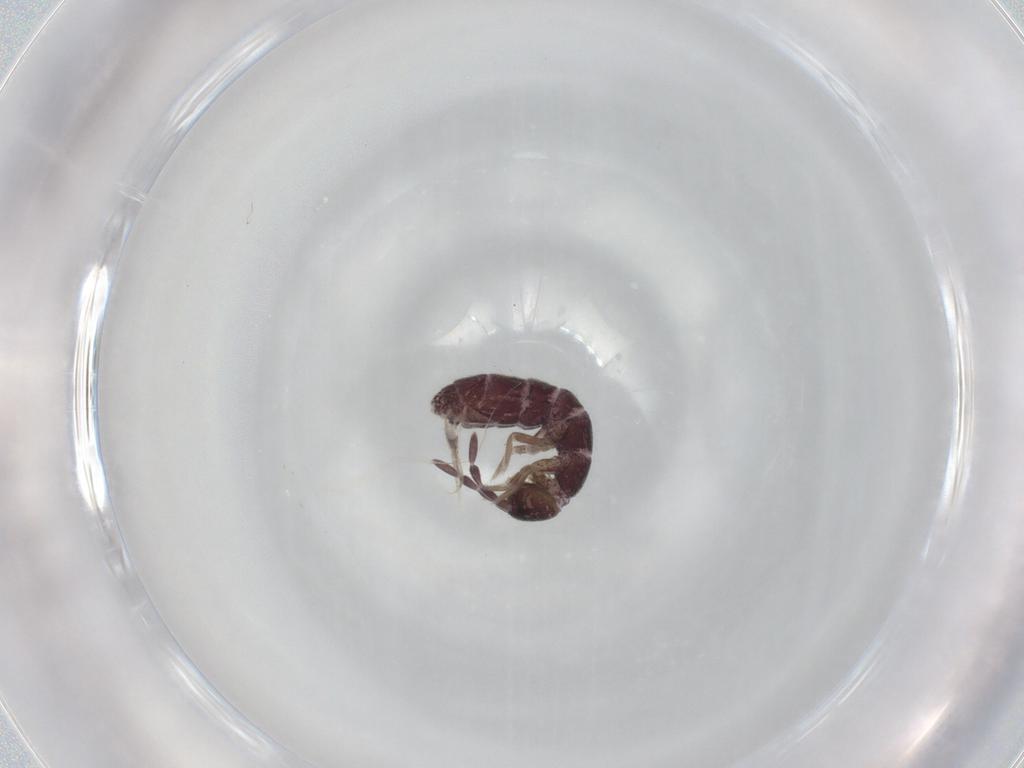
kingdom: Animalia
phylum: Arthropoda
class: Collembola
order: Entomobryomorpha
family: Isotomidae
